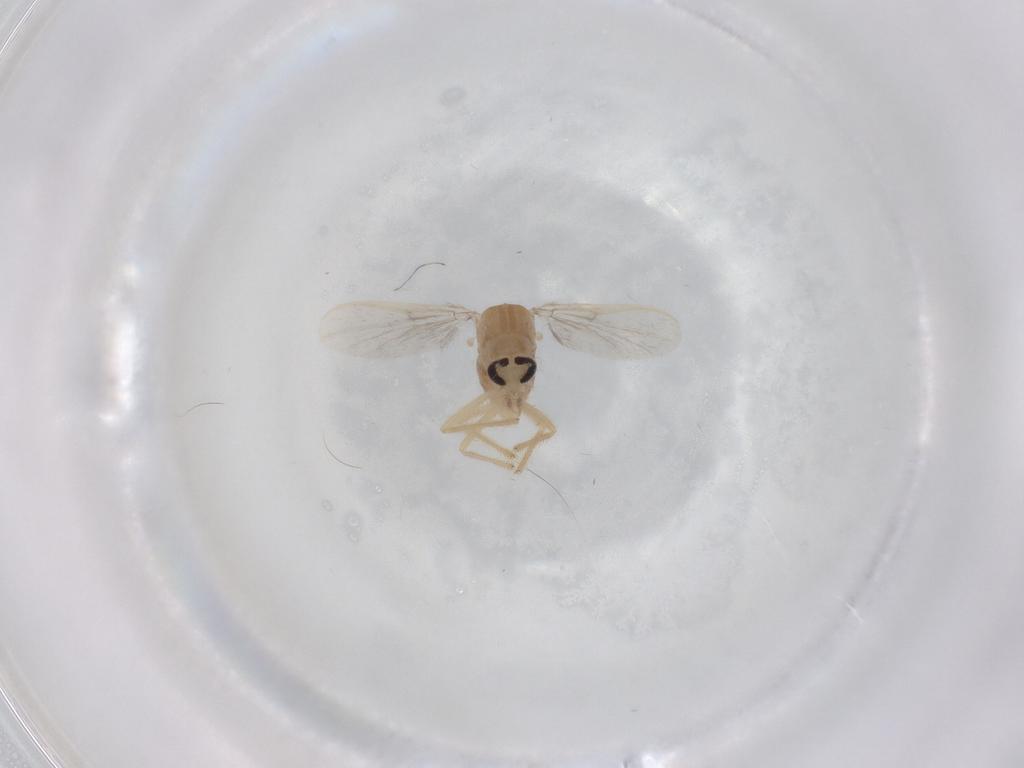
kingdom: Animalia
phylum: Arthropoda
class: Insecta
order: Diptera
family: Chironomidae
